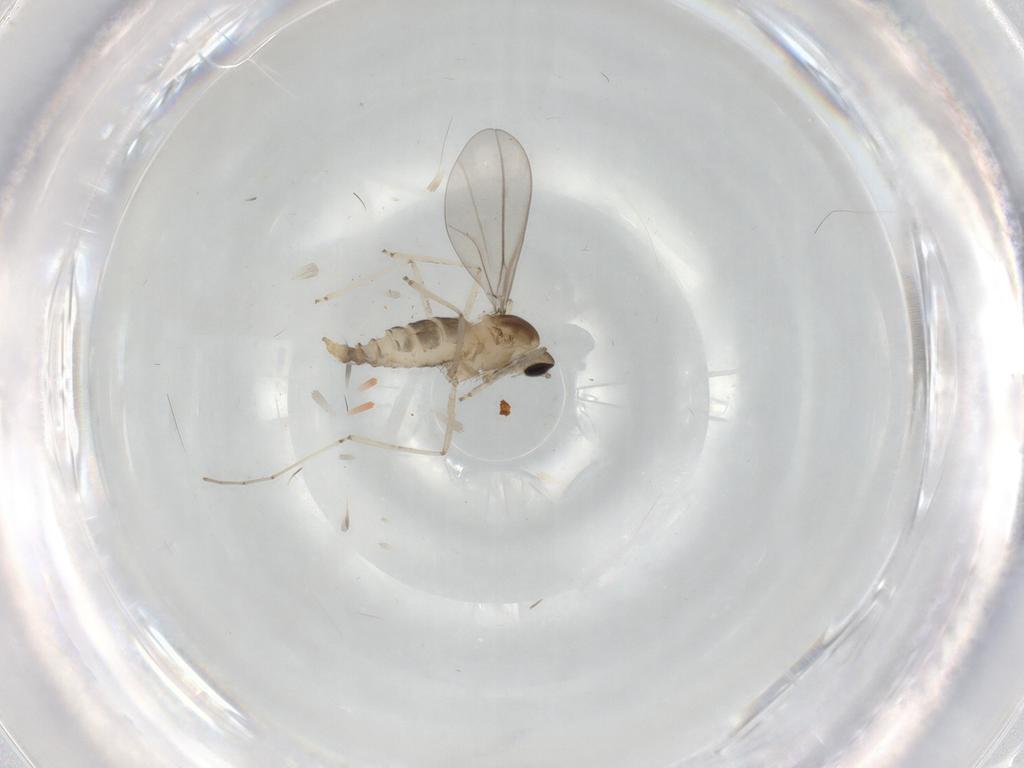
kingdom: Animalia
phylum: Arthropoda
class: Insecta
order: Diptera
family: Cecidomyiidae
